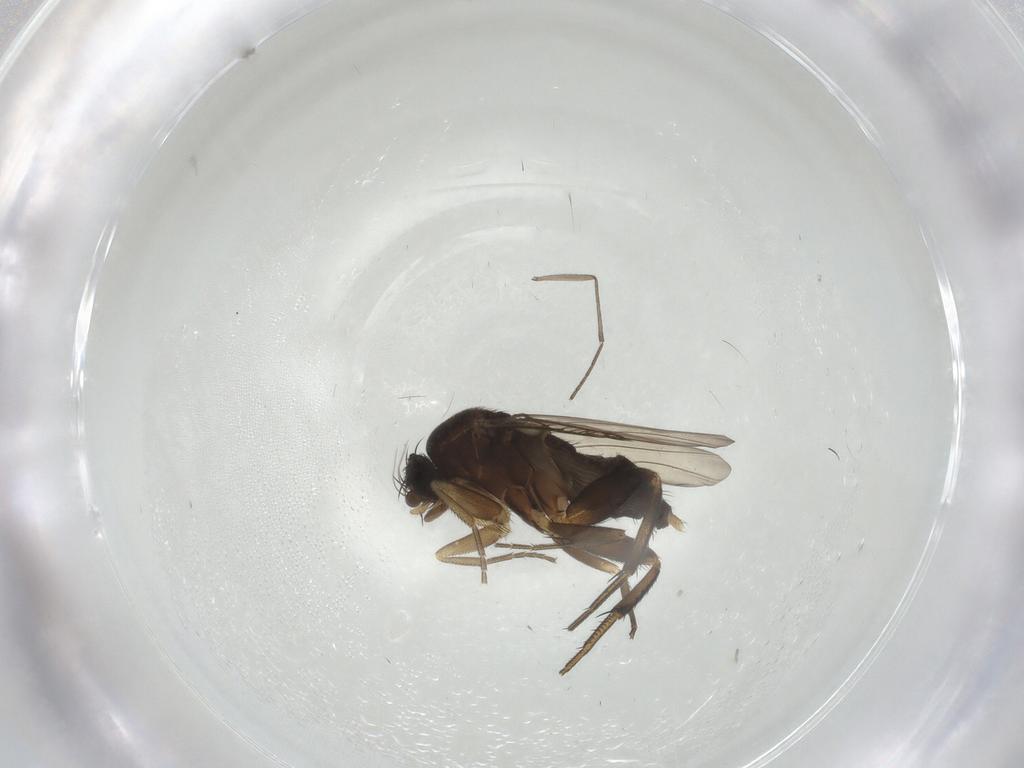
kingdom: Animalia
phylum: Arthropoda
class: Insecta
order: Diptera
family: Phoridae
